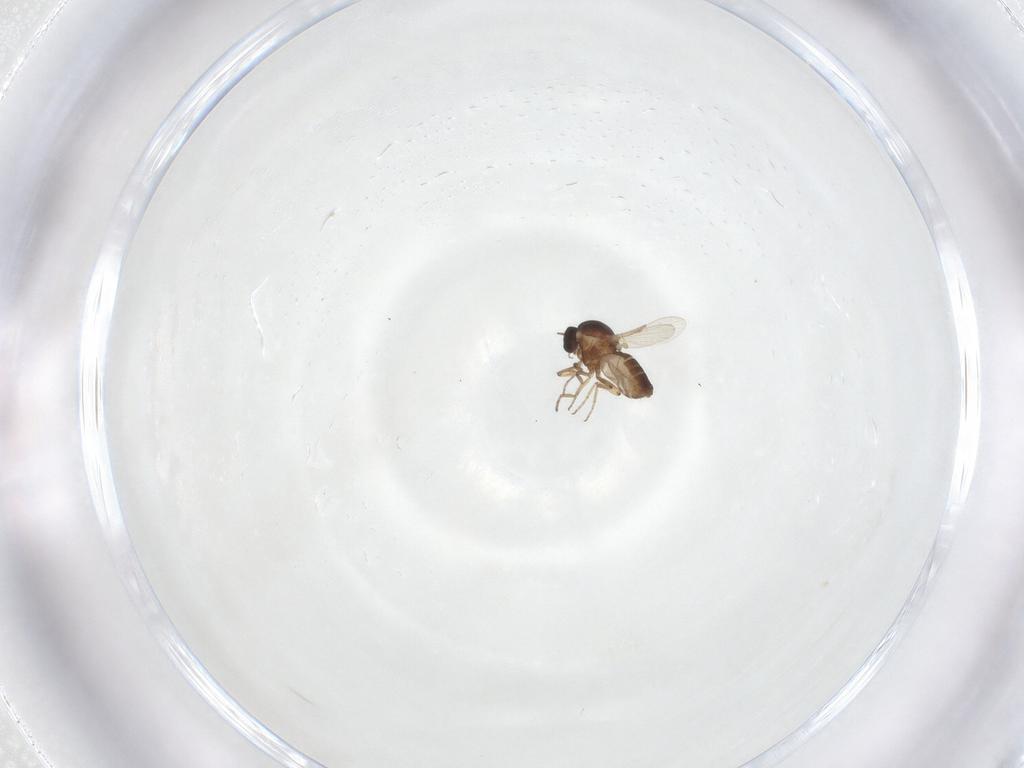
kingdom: Animalia
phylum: Arthropoda
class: Insecta
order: Diptera
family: Ceratopogonidae
